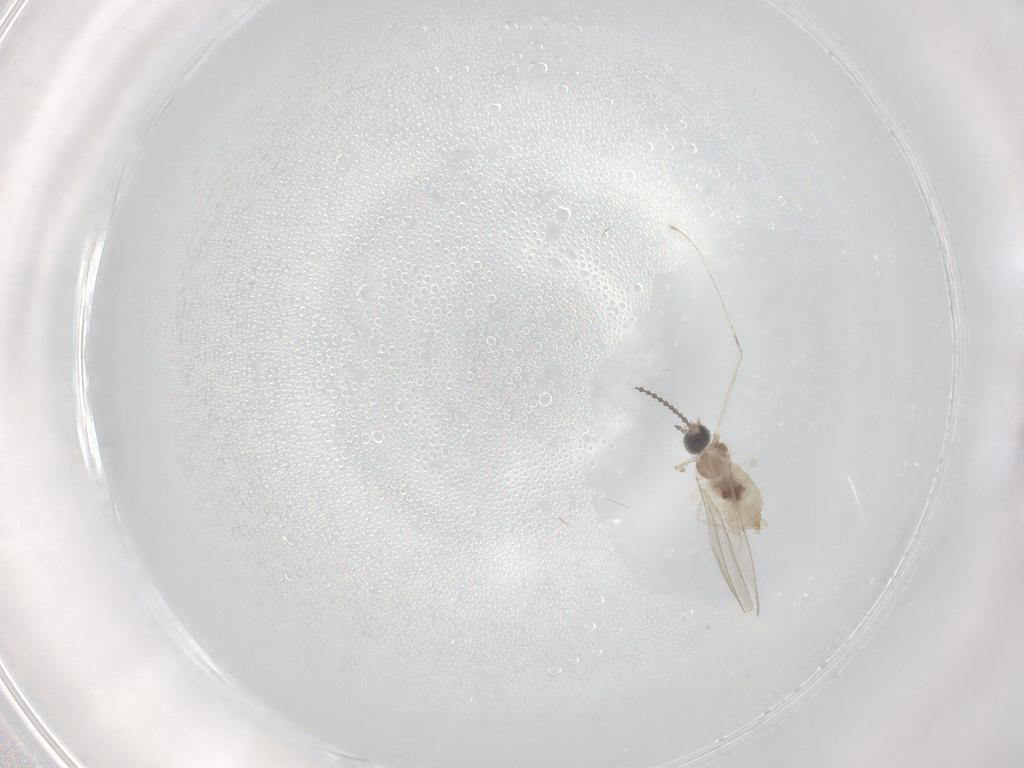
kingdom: Animalia
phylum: Arthropoda
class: Insecta
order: Diptera
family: Cecidomyiidae
